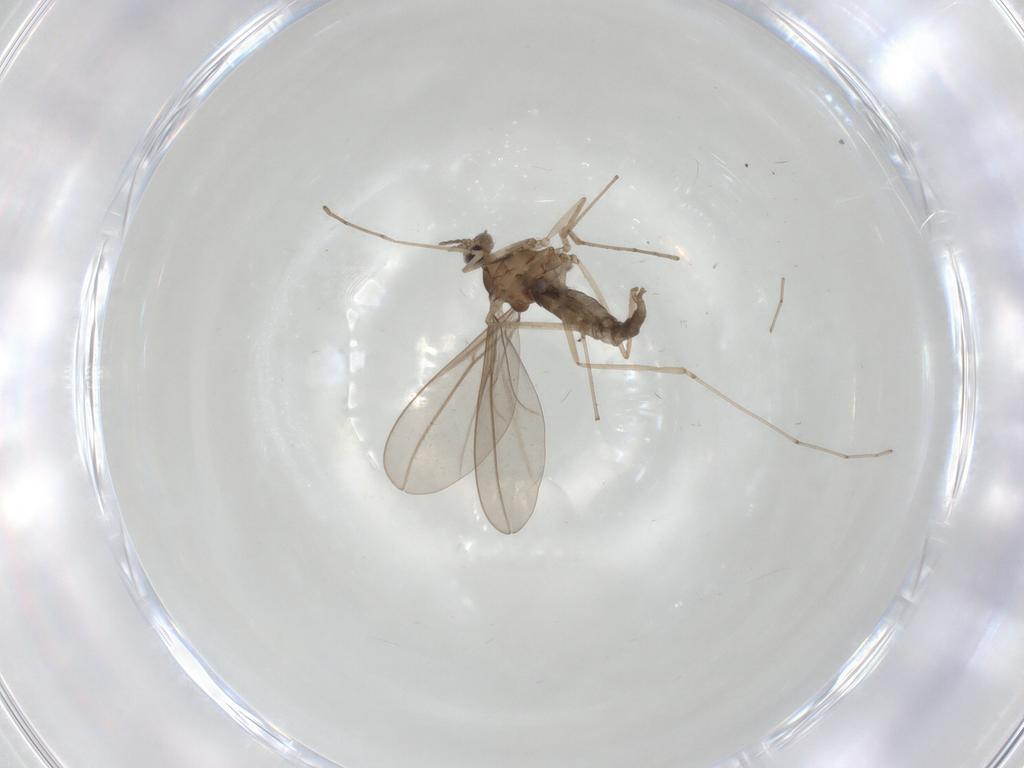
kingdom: Animalia
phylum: Arthropoda
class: Insecta
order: Diptera
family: Cecidomyiidae
